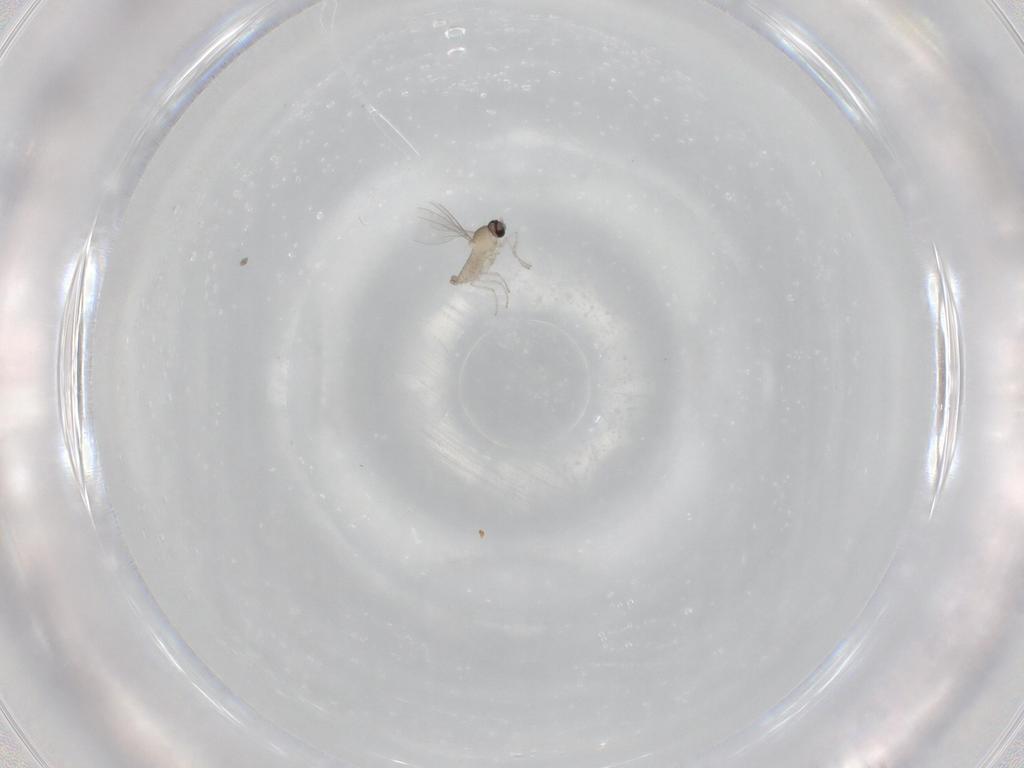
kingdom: Animalia
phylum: Arthropoda
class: Insecta
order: Diptera
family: Cecidomyiidae
